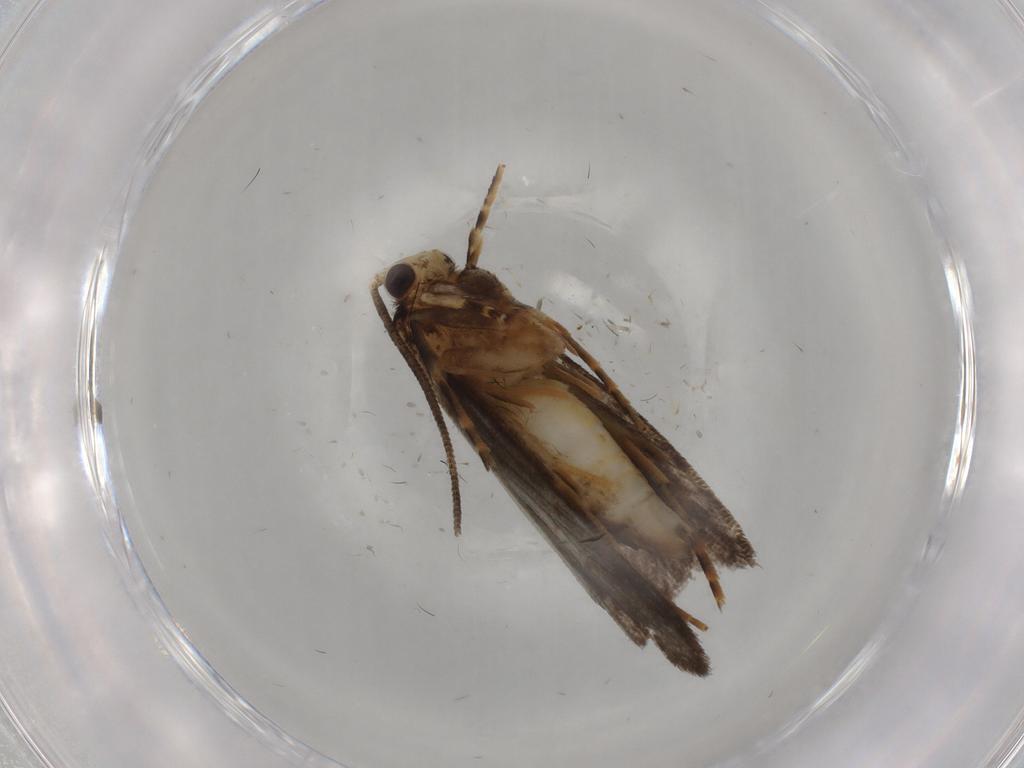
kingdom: Animalia
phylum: Arthropoda
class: Insecta
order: Lepidoptera
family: Tineidae
